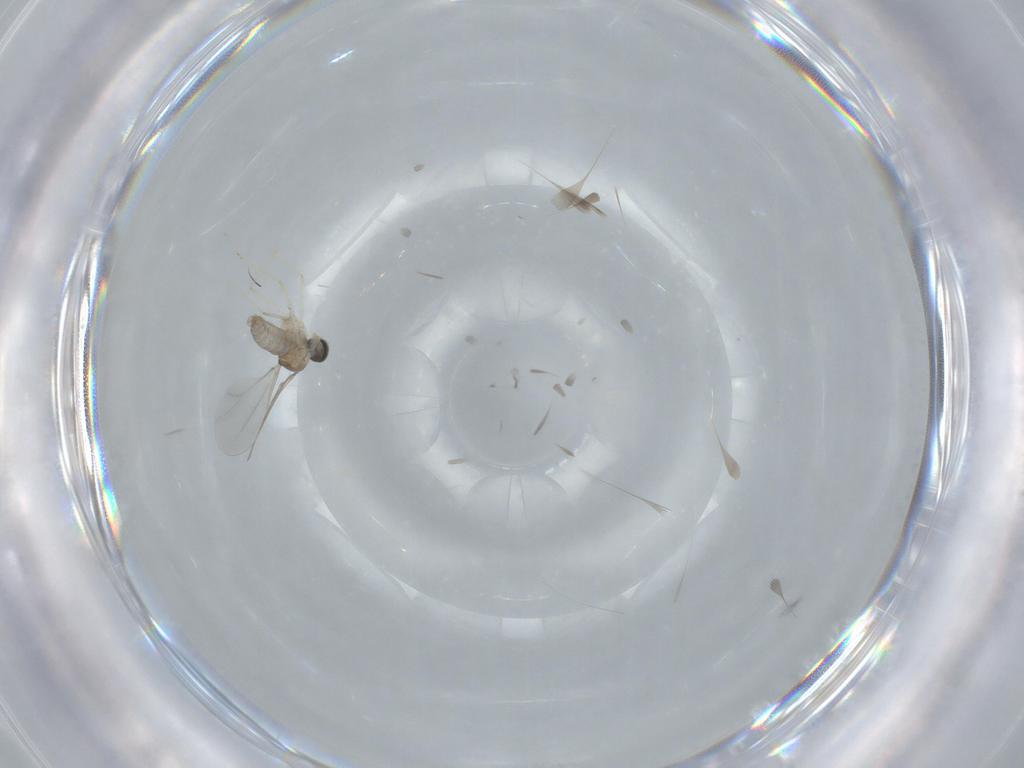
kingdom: Animalia
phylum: Arthropoda
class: Insecta
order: Diptera
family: Cecidomyiidae
